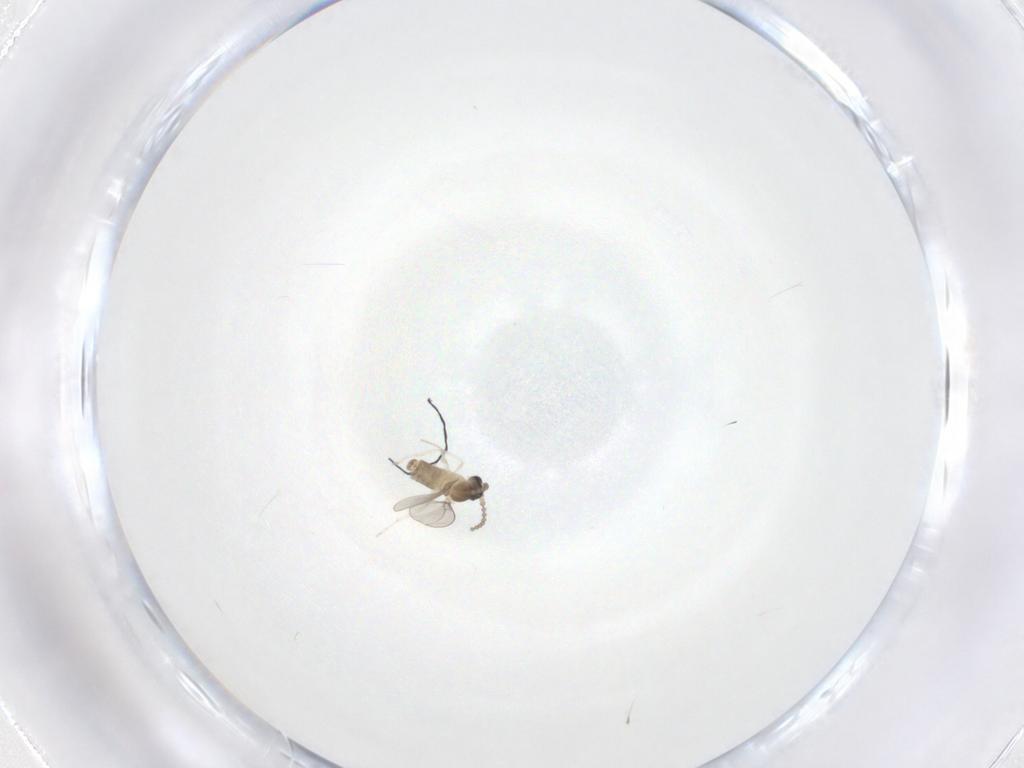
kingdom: Animalia
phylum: Arthropoda
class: Insecta
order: Diptera
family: Cecidomyiidae
